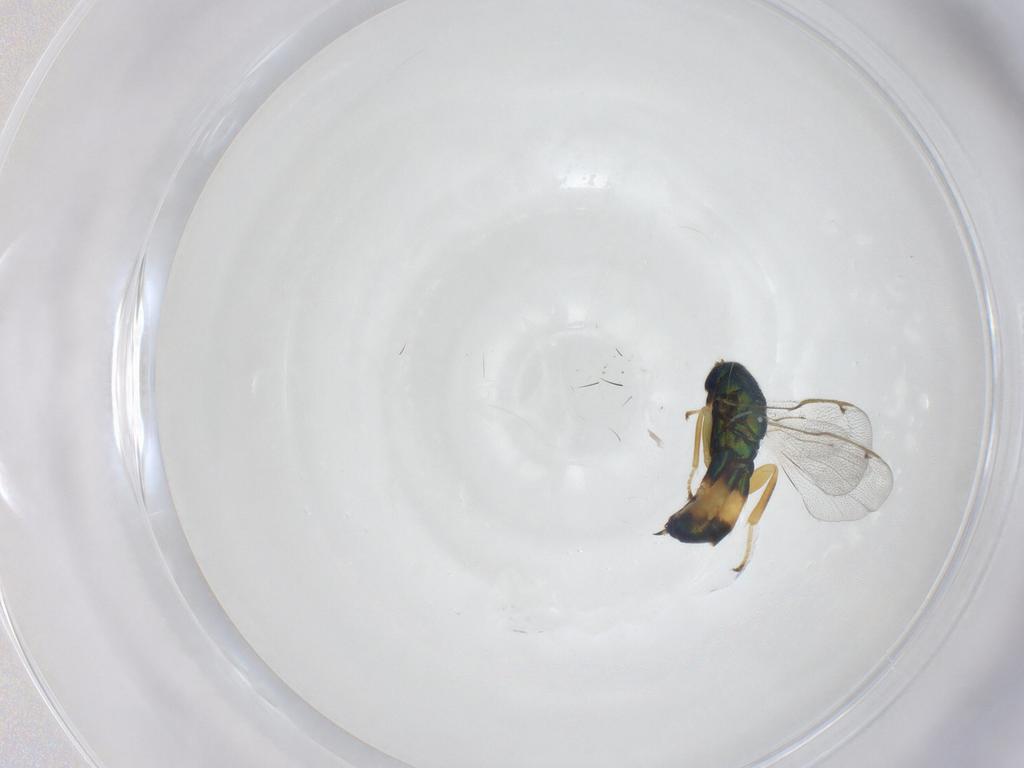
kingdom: Animalia
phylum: Arthropoda
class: Insecta
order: Hymenoptera
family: Torymidae
